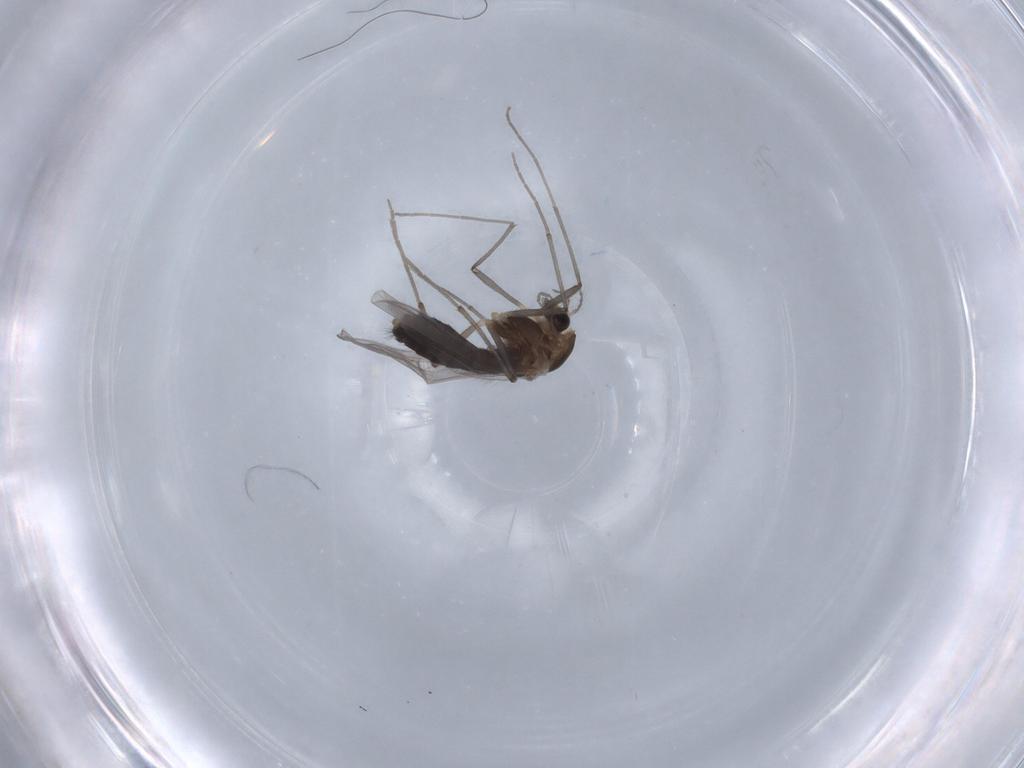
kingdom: Animalia
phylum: Arthropoda
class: Insecta
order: Diptera
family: Chironomidae
